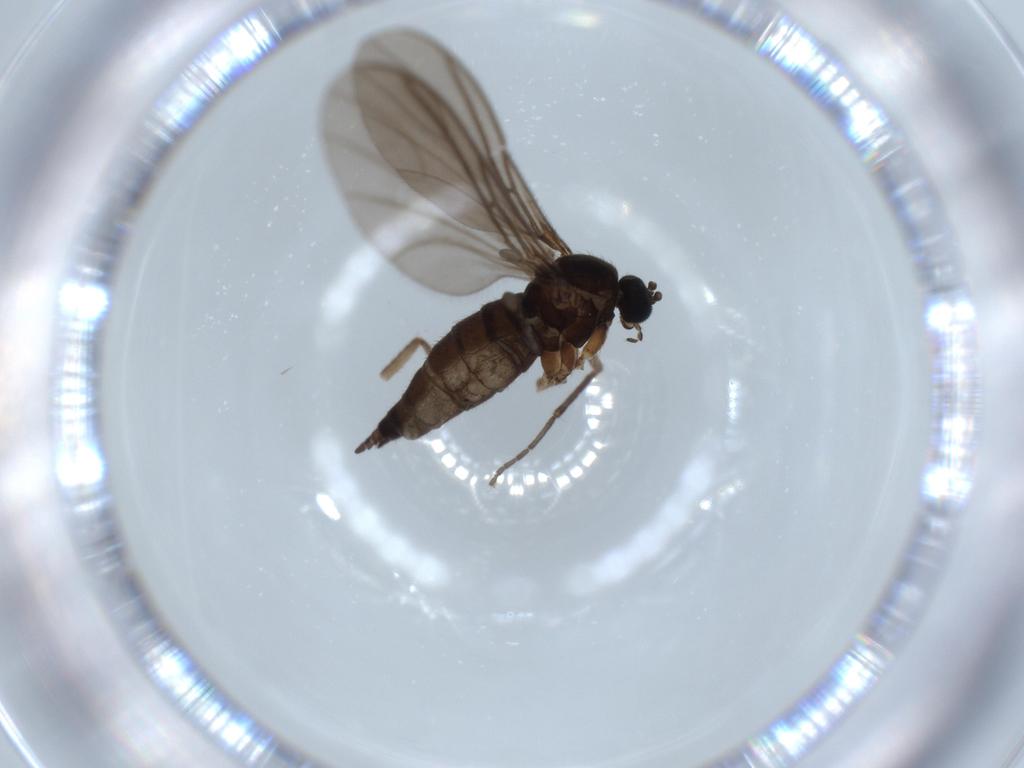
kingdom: Animalia
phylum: Arthropoda
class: Insecta
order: Diptera
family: Sciaridae
